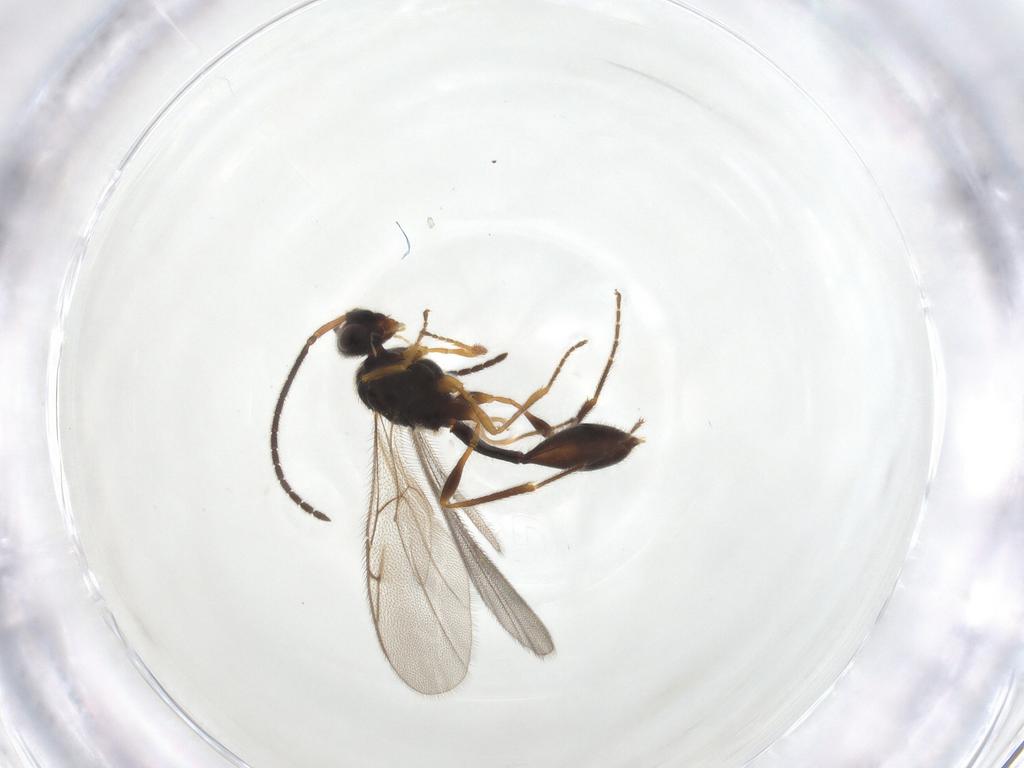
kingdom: Animalia
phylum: Arthropoda
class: Insecta
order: Hymenoptera
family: Diapriidae
